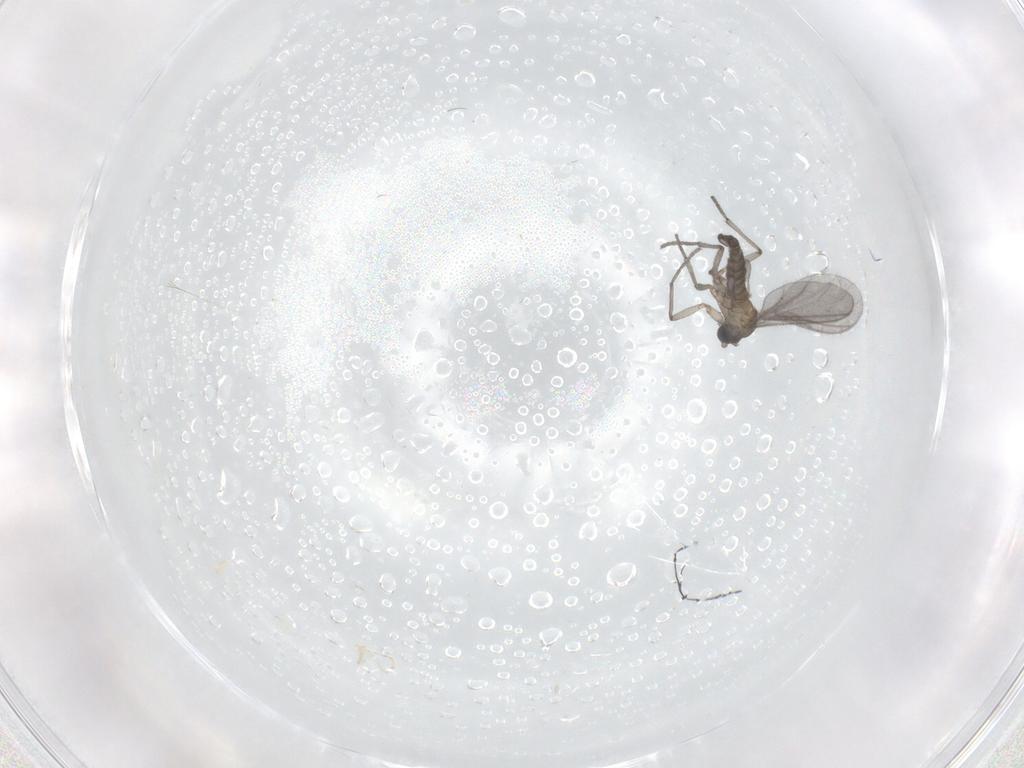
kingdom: Animalia
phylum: Arthropoda
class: Insecta
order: Diptera
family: Sciaridae
